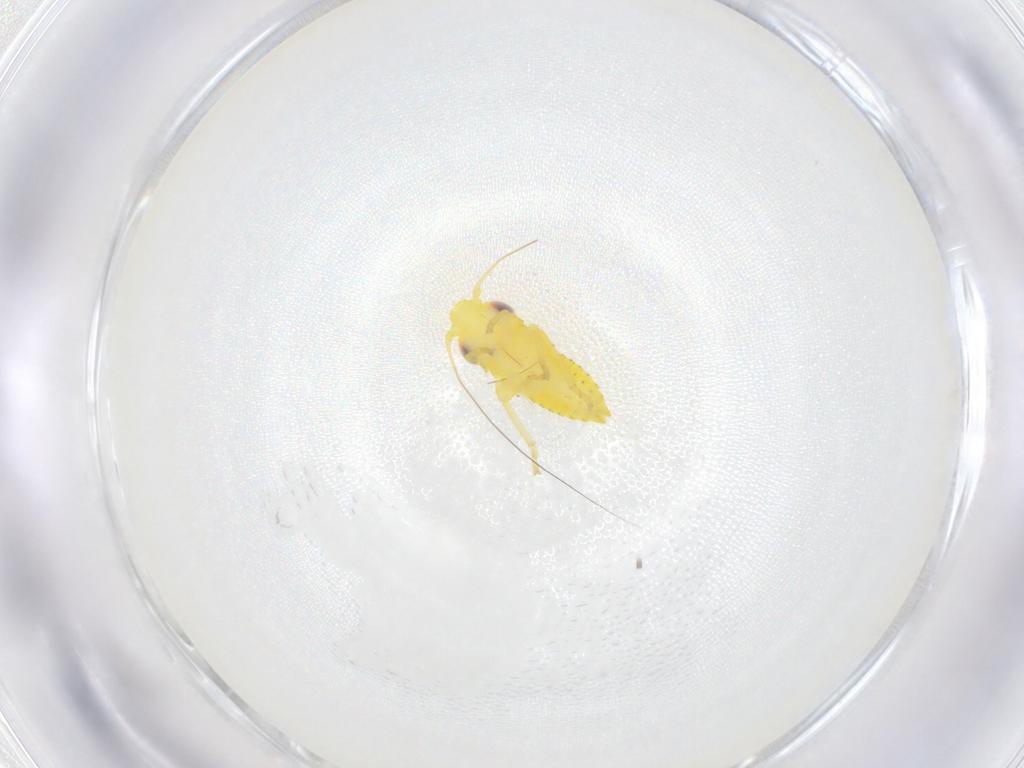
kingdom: Animalia
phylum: Arthropoda
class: Insecta
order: Hemiptera
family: Cicadellidae
